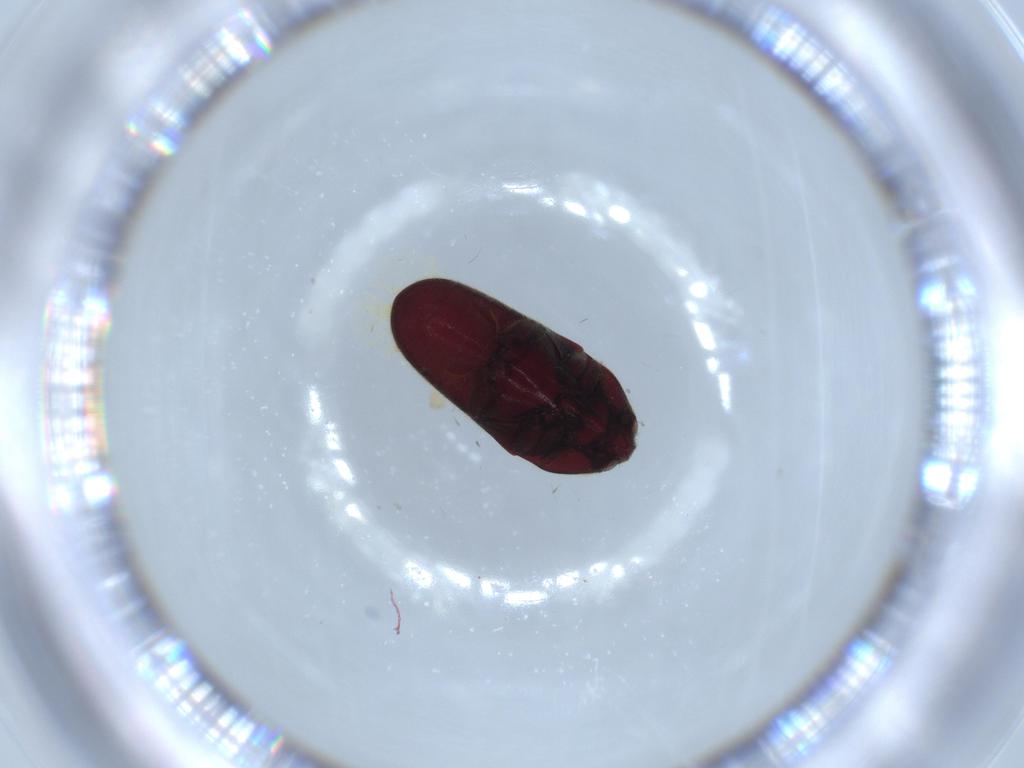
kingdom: Animalia
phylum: Arthropoda
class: Insecta
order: Coleoptera
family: Throscidae
